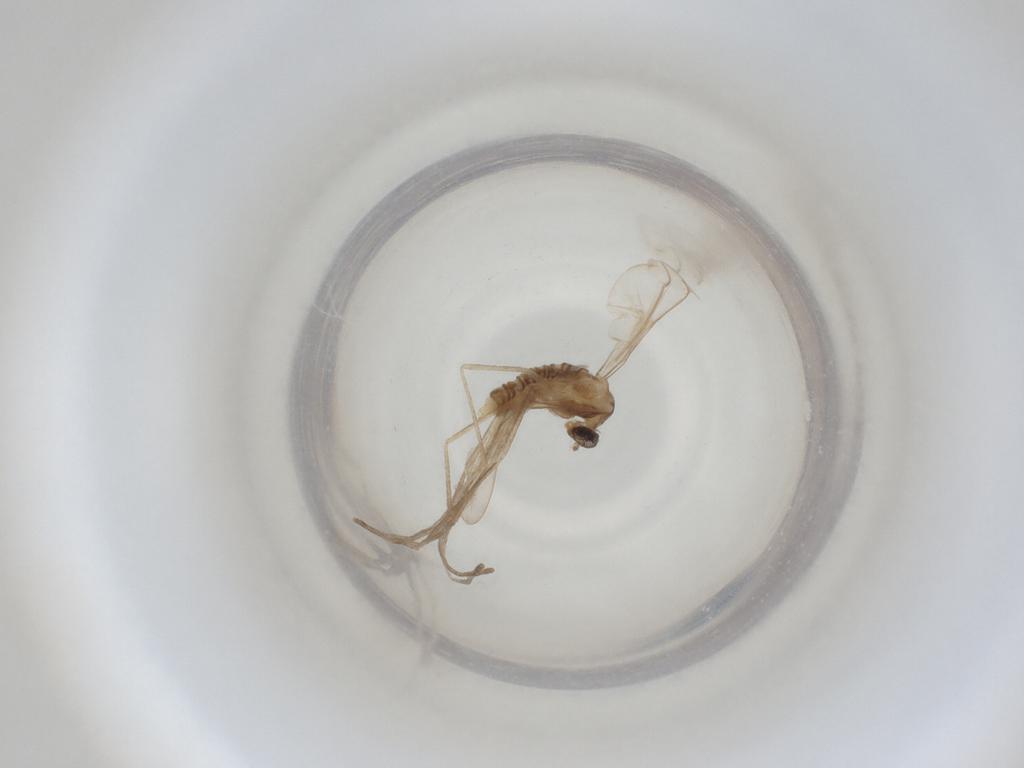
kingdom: Animalia
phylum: Arthropoda
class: Insecta
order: Diptera
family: Cecidomyiidae
